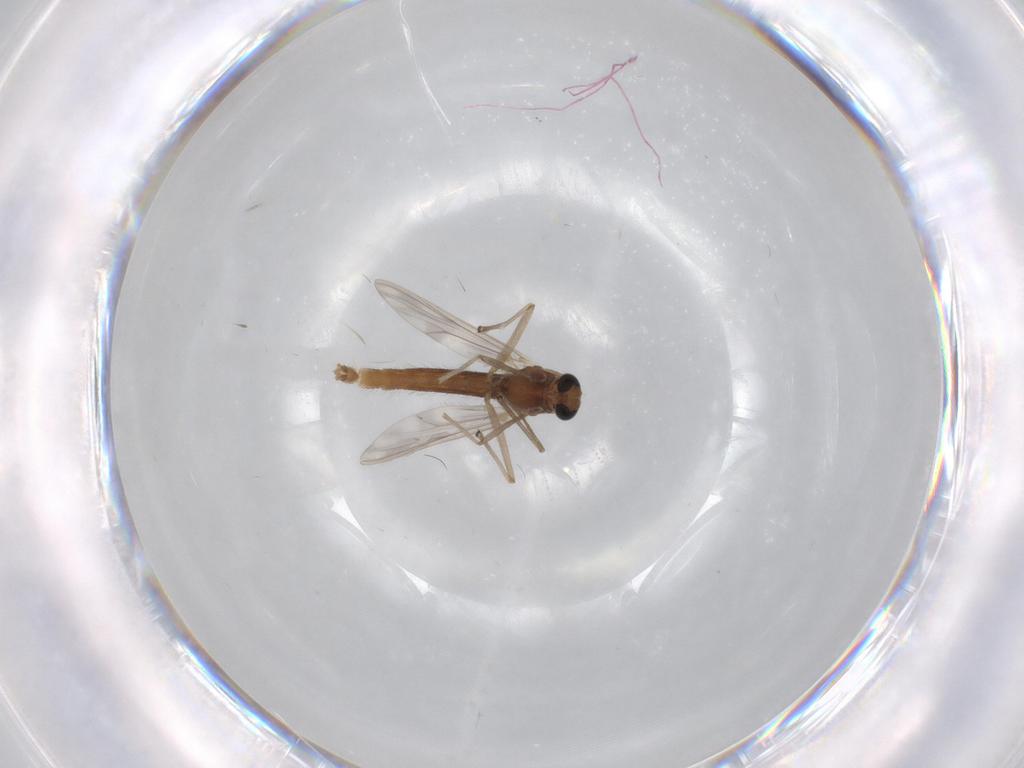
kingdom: Animalia
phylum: Arthropoda
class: Insecta
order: Diptera
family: Chironomidae
